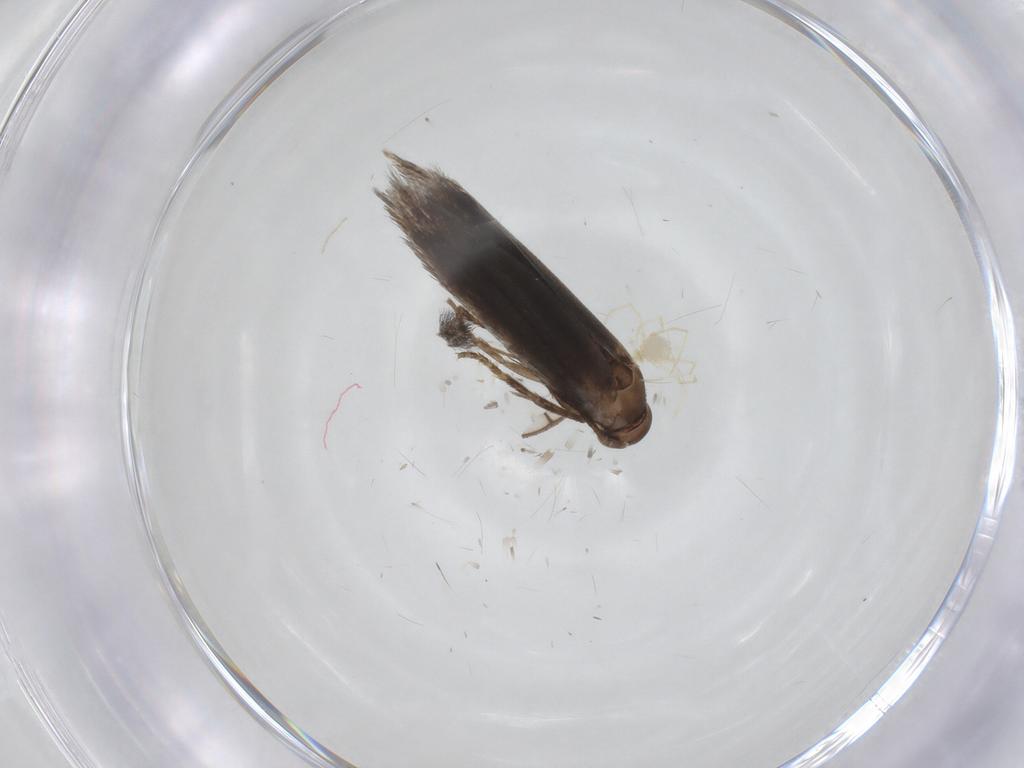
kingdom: Animalia
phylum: Arthropoda
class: Insecta
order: Lepidoptera
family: Elachistidae
